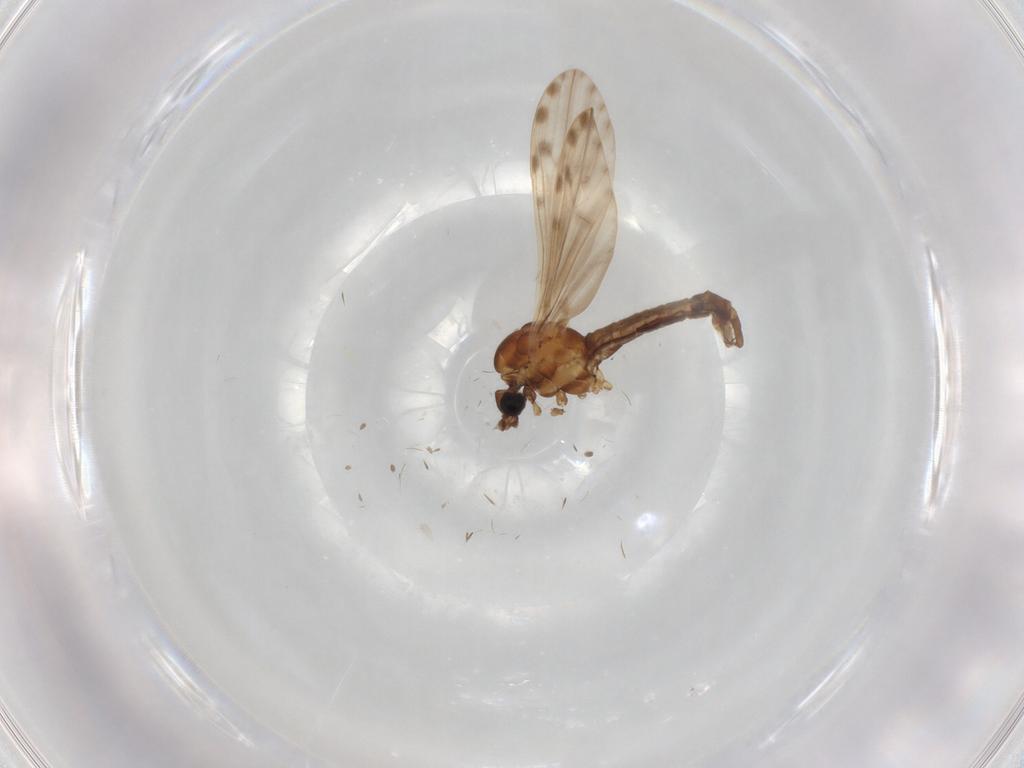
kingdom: Animalia
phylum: Arthropoda
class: Insecta
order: Diptera
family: Limoniidae
